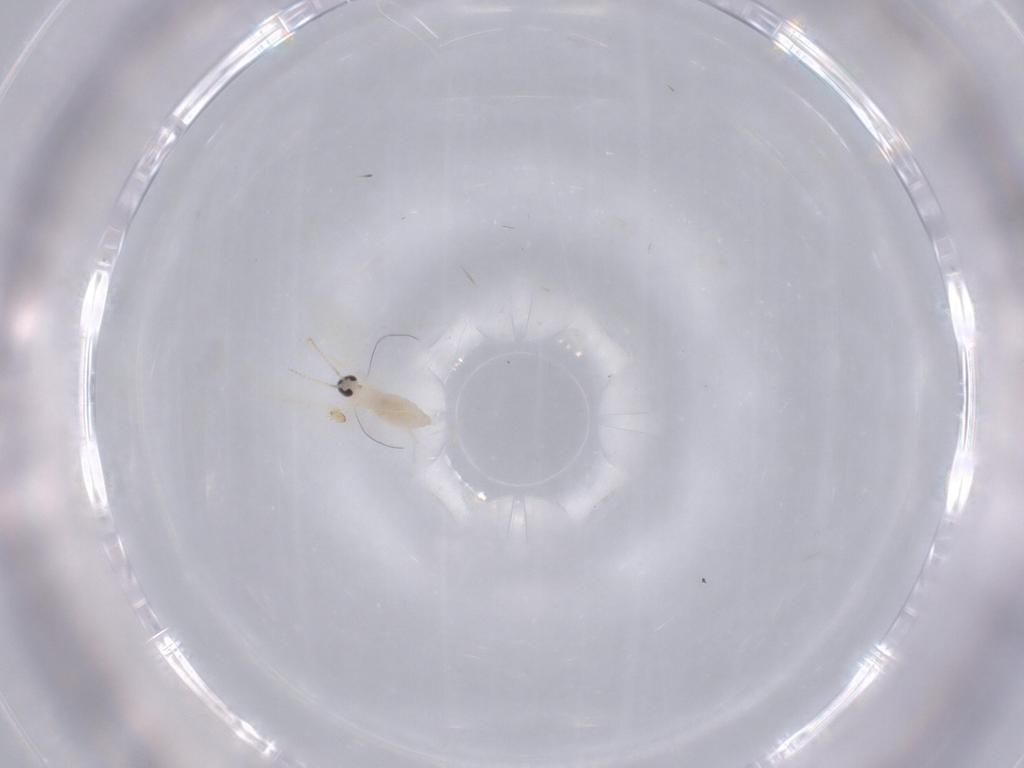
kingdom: Animalia
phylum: Arthropoda
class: Insecta
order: Diptera
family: Cecidomyiidae
